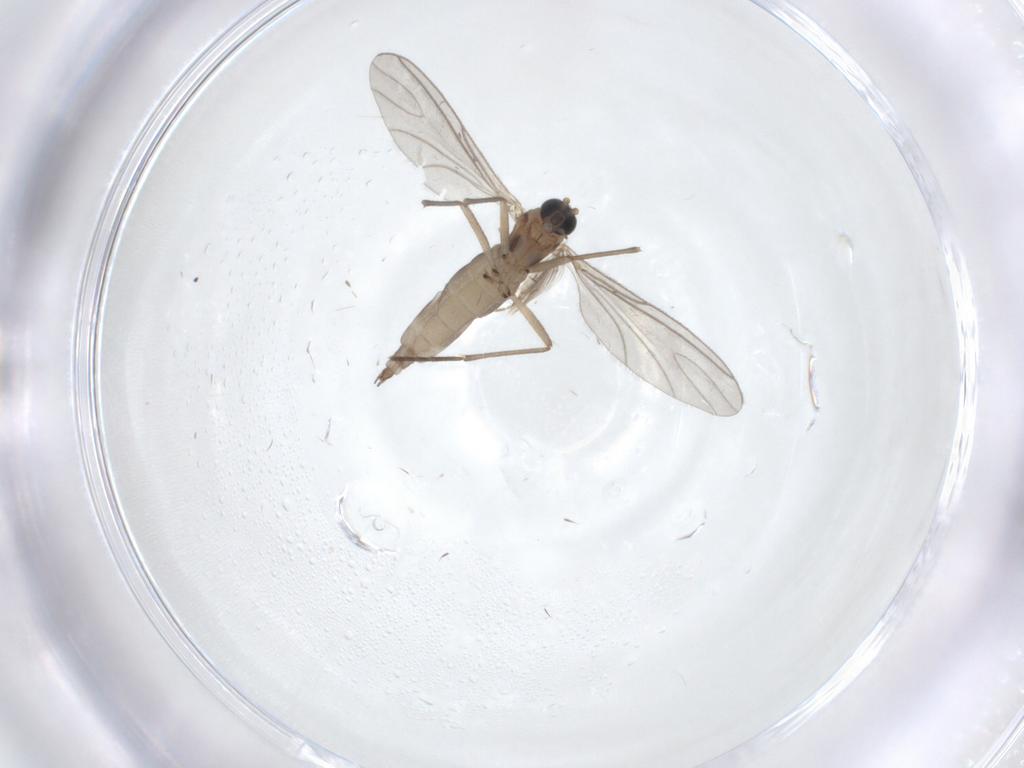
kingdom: Animalia
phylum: Arthropoda
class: Insecta
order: Diptera
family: Sciaridae
